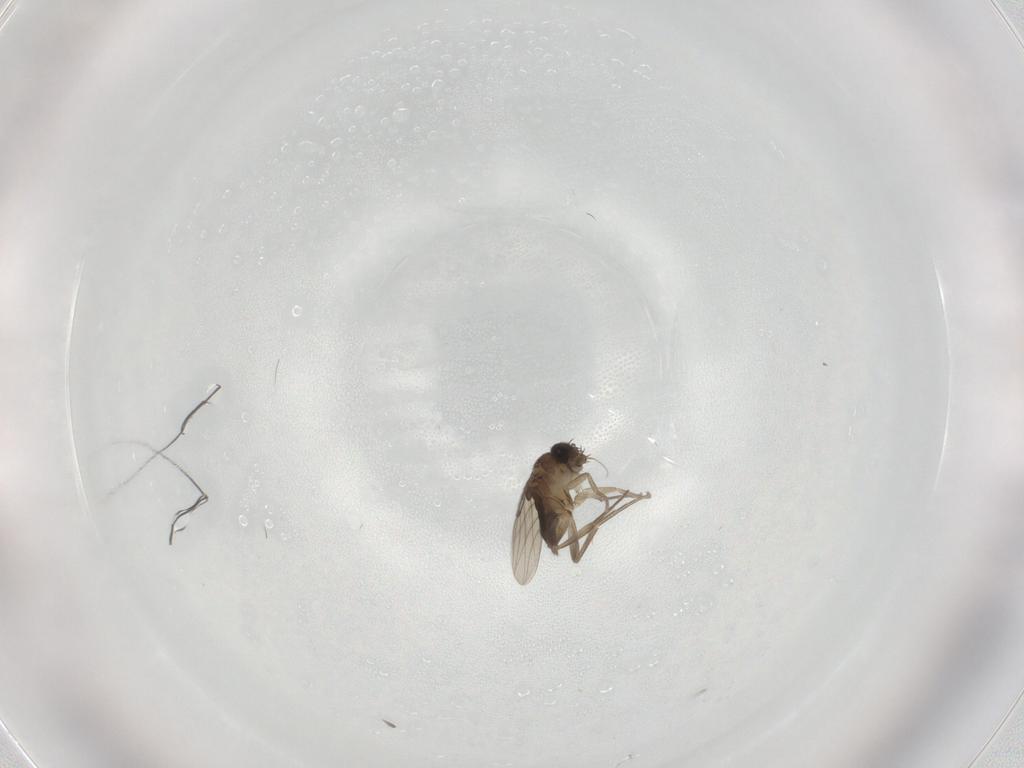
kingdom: Animalia
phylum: Arthropoda
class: Insecta
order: Diptera
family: Phoridae
